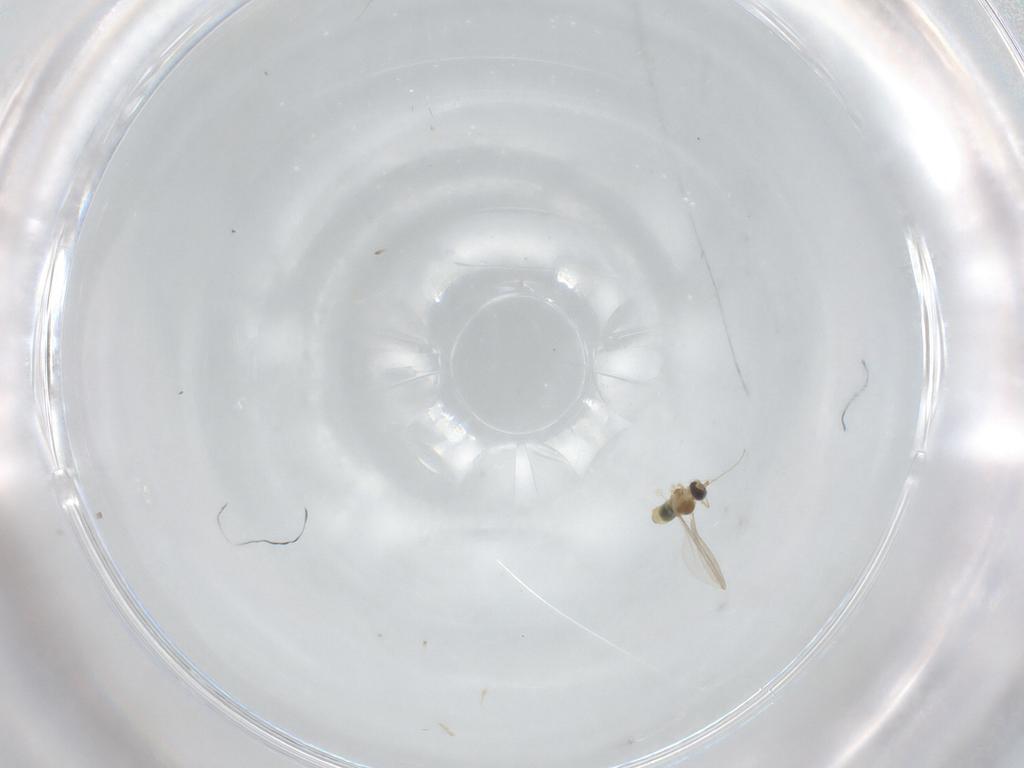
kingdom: Animalia
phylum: Arthropoda
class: Insecta
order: Diptera
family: Cecidomyiidae
